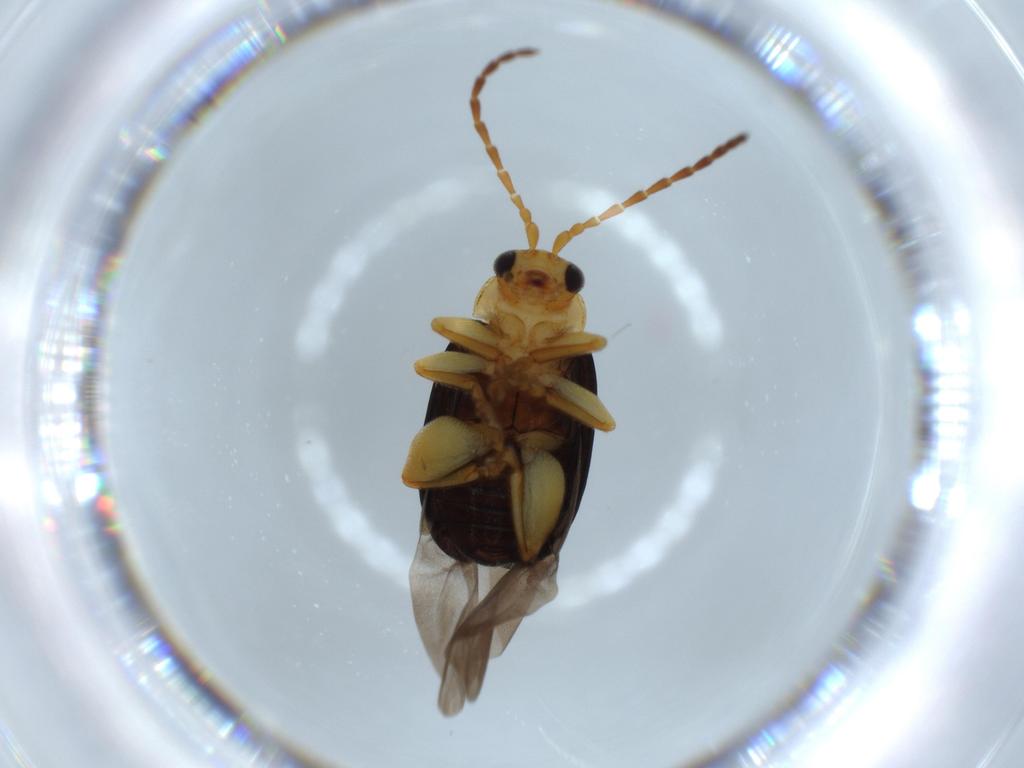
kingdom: Animalia
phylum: Arthropoda
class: Insecta
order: Coleoptera
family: Chrysomelidae
